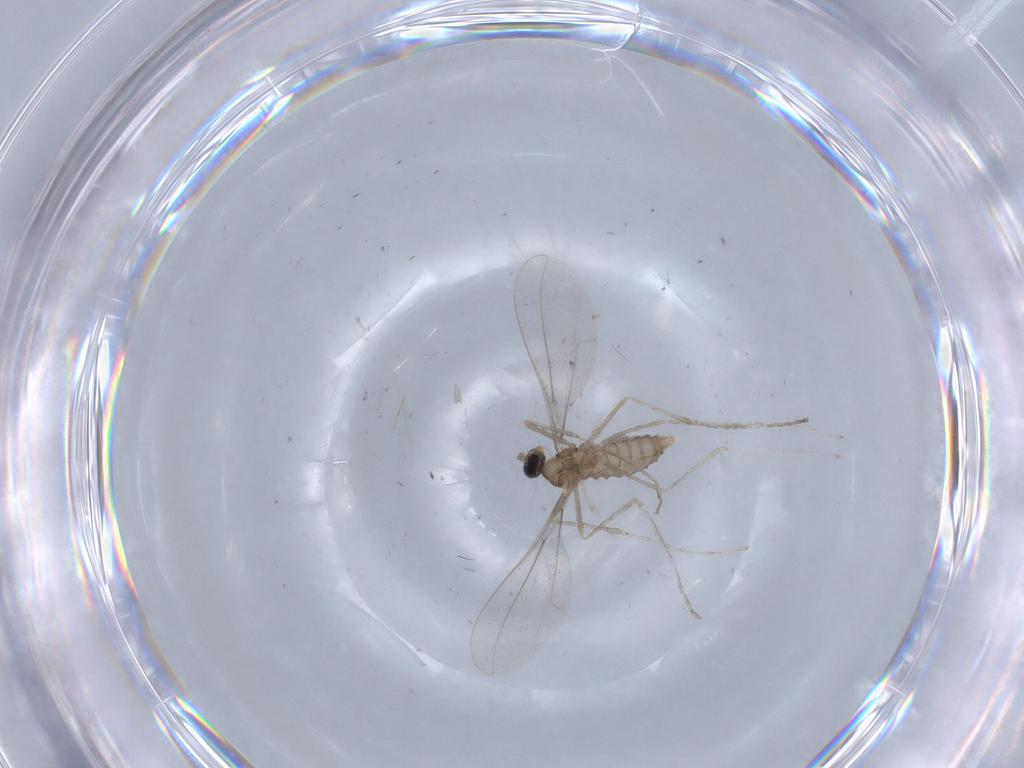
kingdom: Animalia
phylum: Arthropoda
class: Insecta
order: Diptera
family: Cecidomyiidae
